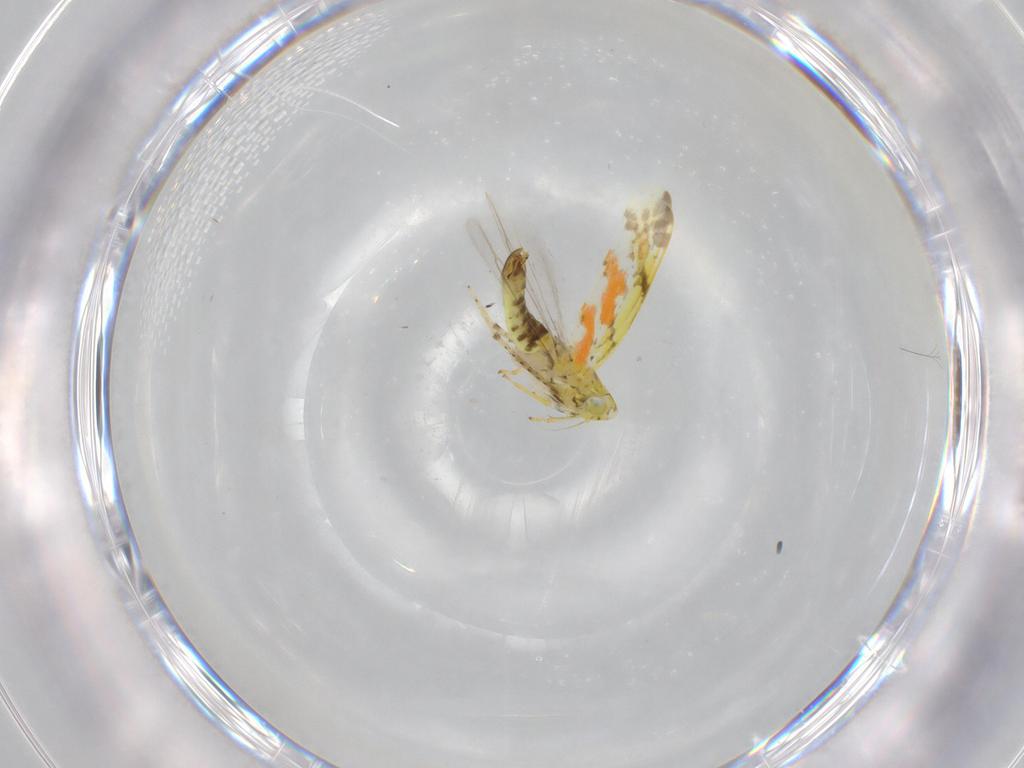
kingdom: Animalia
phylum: Arthropoda
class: Insecta
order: Hemiptera
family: Cicadellidae
